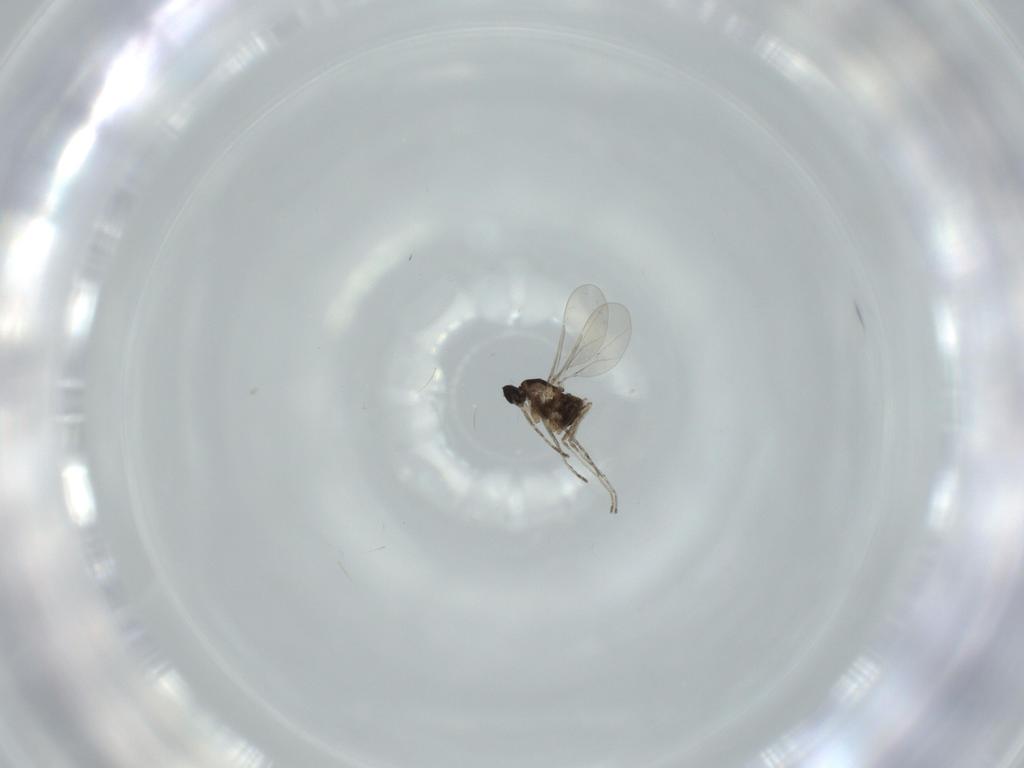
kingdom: Animalia
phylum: Arthropoda
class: Insecta
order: Diptera
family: Cecidomyiidae
